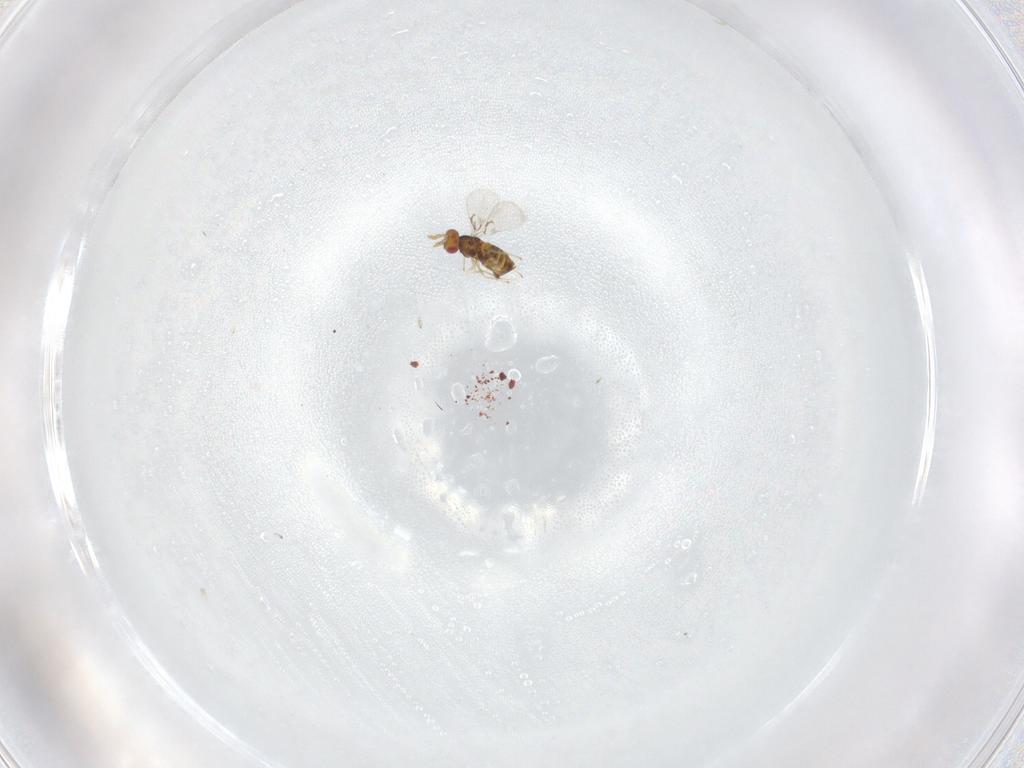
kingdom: Animalia
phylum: Arthropoda
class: Insecta
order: Hymenoptera
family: Trichogrammatidae
